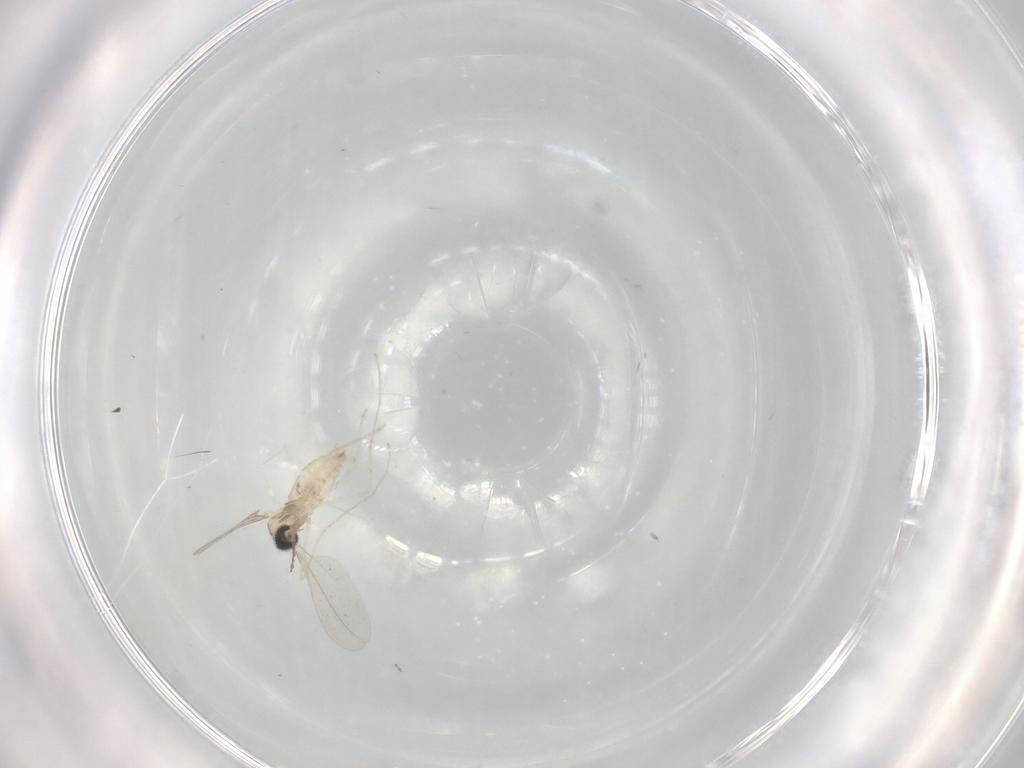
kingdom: Animalia
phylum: Arthropoda
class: Insecta
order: Diptera
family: Cecidomyiidae
